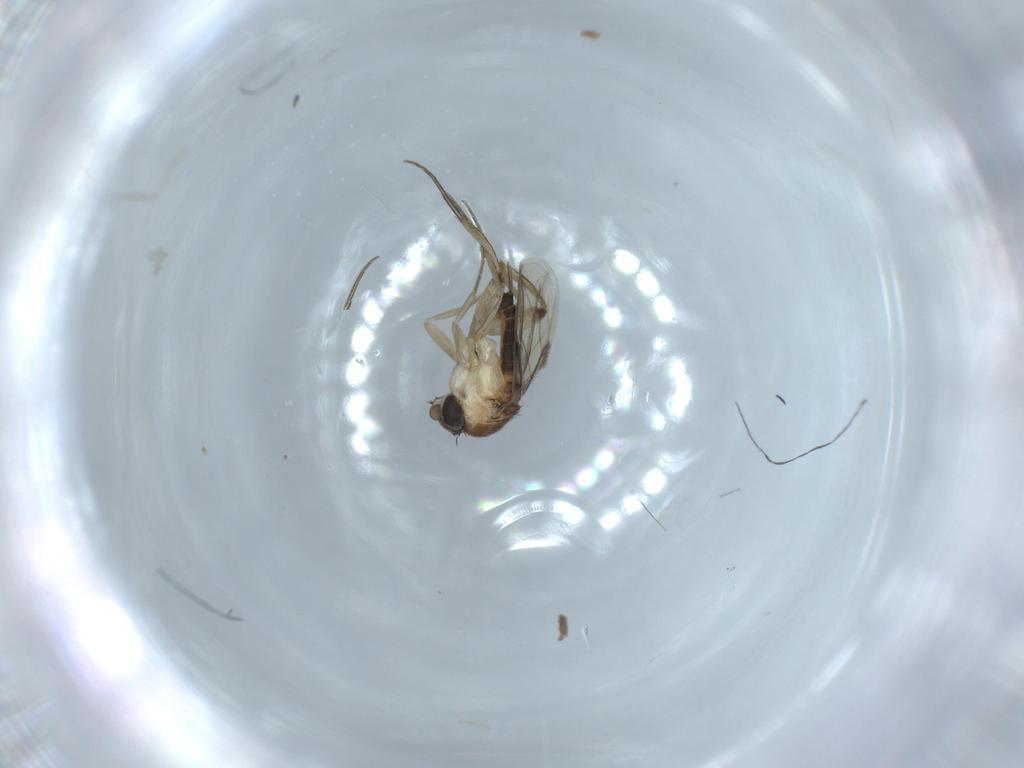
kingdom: Animalia
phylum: Arthropoda
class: Insecta
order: Diptera
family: Phoridae
